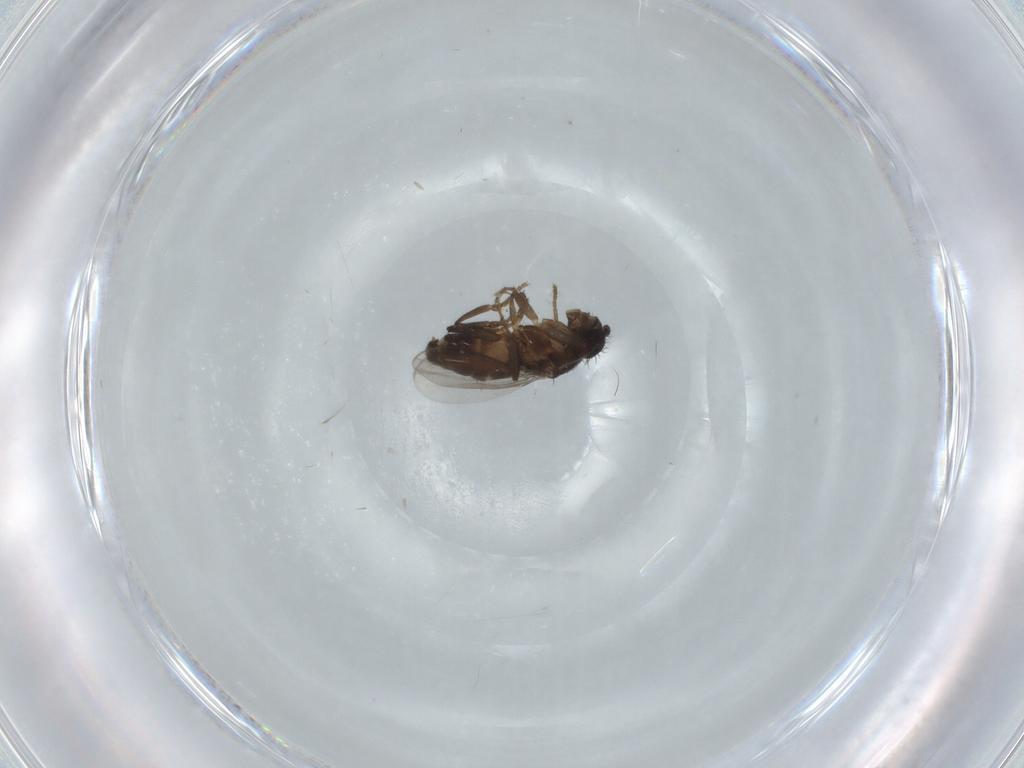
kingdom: Animalia
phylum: Arthropoda
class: Insecta
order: Diptera
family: Sphaeroceridae
